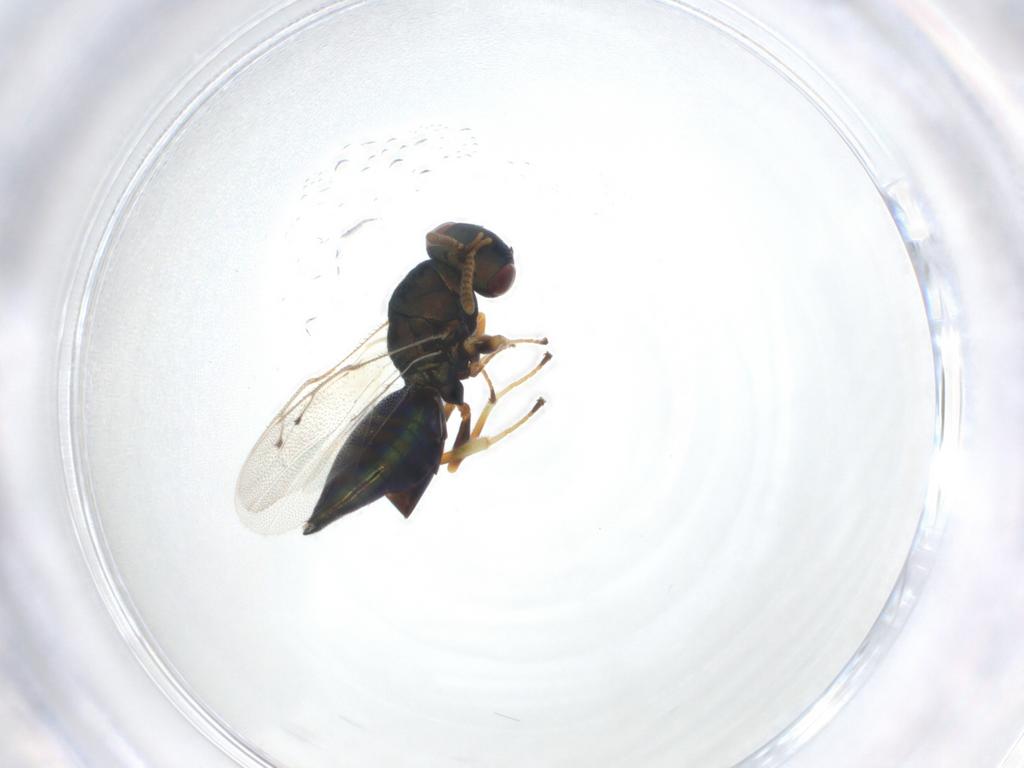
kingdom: Animalia
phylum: Arthropoda
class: Insecta
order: Hymenoptera
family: Pteromalidae
